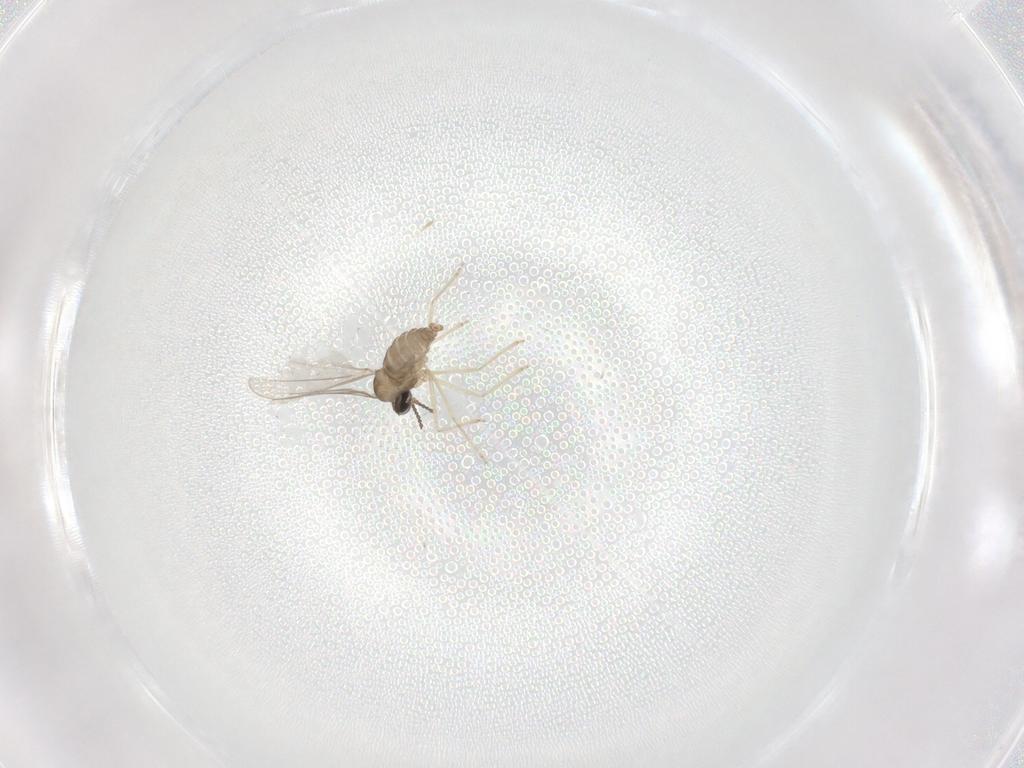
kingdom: Animalia
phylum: Arthropoda
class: Insecta
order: Diptera
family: Cecidomyiidae
